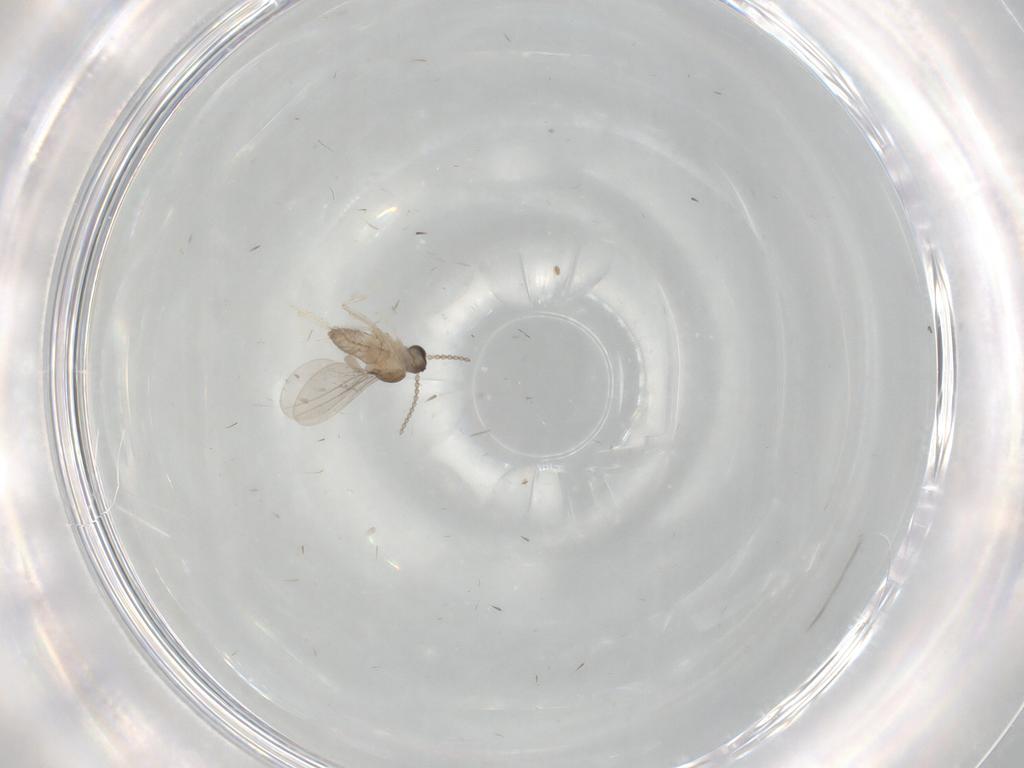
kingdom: Animalia
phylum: Arthropoda
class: Insecta
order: Diptera
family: Cecidomyiidae
